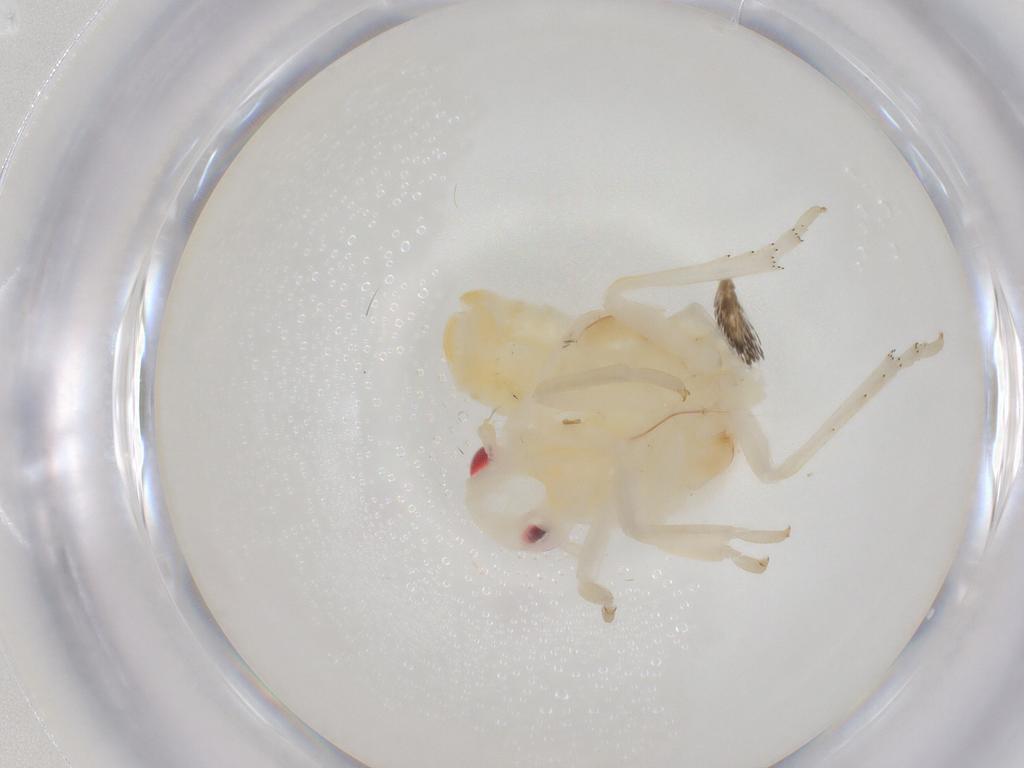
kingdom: Animalia
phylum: Arthropoda
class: Insecta
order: Hemiptera
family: Flatidae
